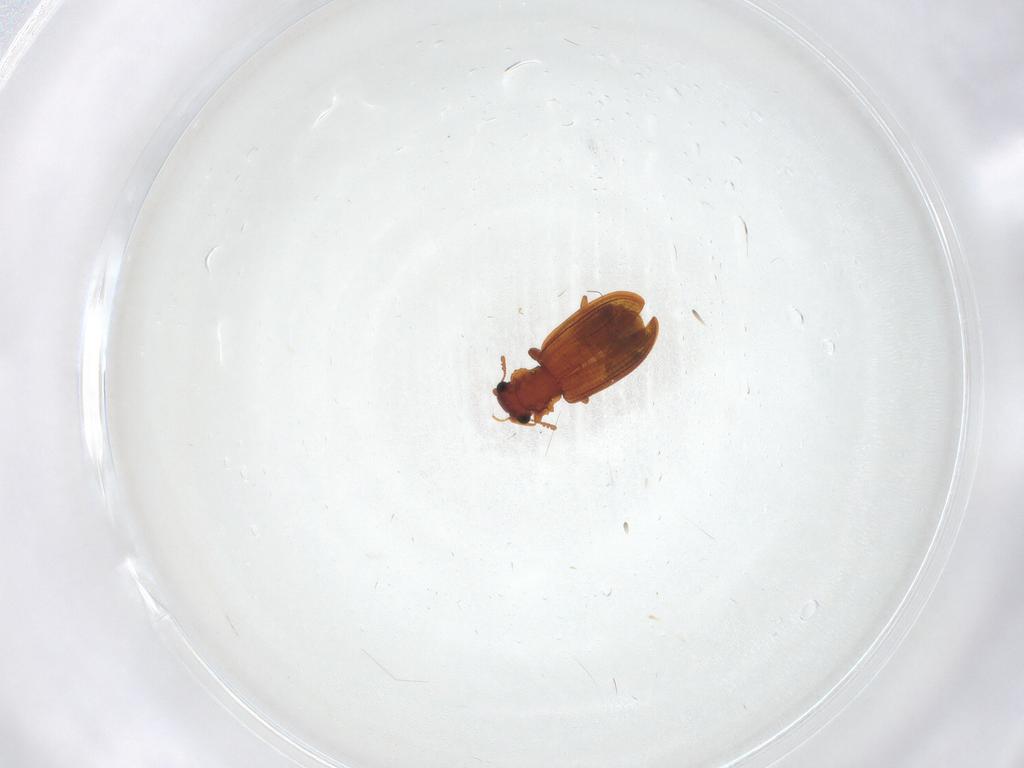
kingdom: Animalia
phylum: Arthropoda
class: Insecta
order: Coleoptera
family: Latridiidae
